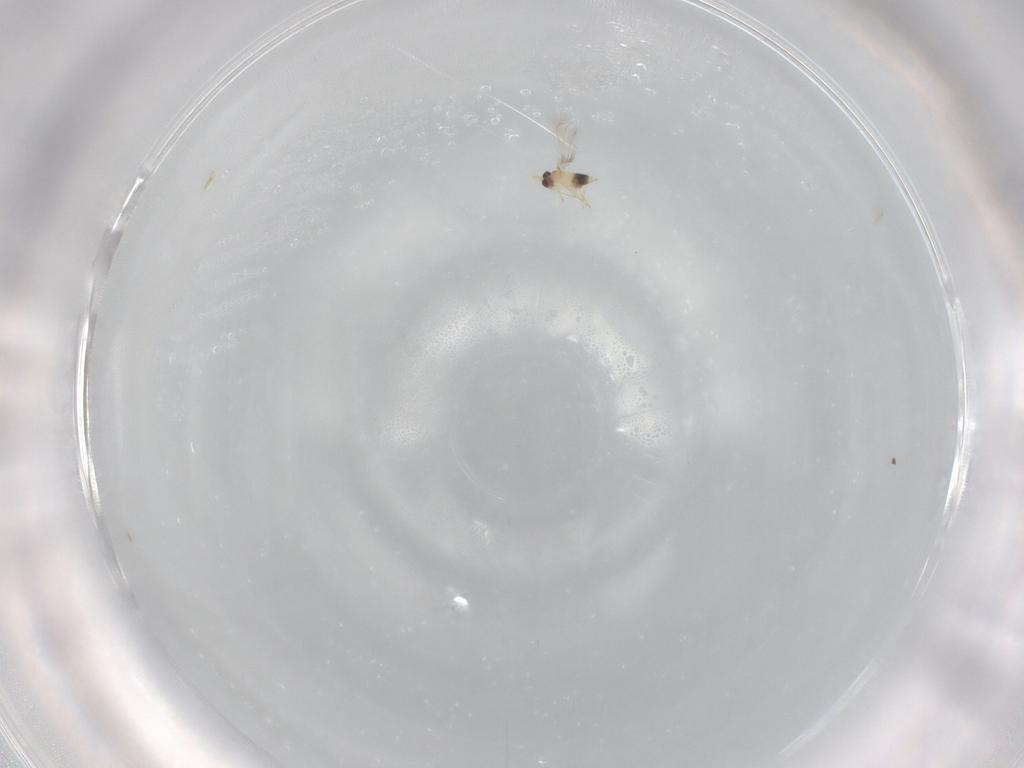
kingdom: Animalia
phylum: Arthropoda
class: Insecta
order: Hymenoptera
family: Mymaridae
